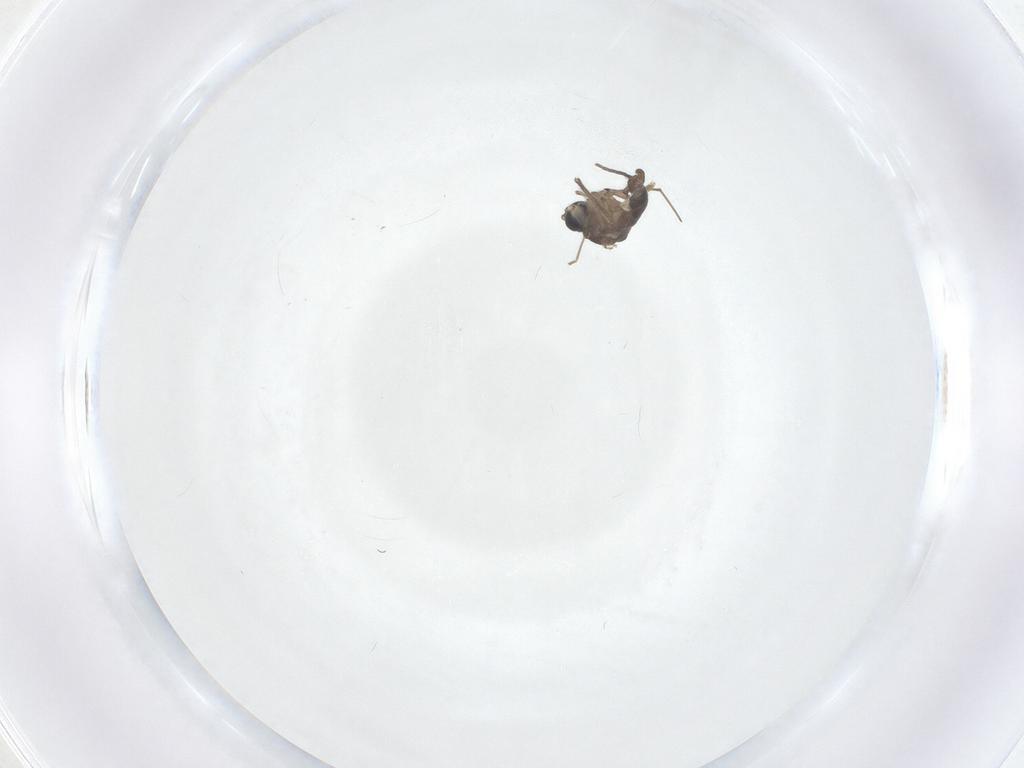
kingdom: Animalia
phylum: Arthropoda
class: Insecta
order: Diptera
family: Sciaridae
